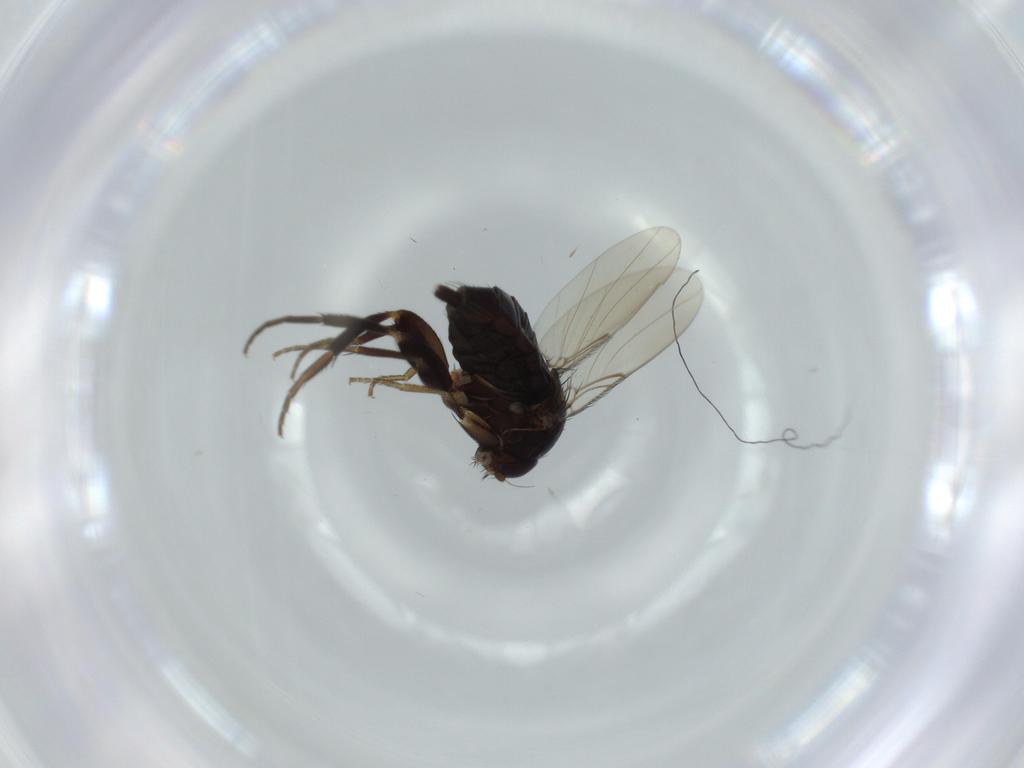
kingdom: Animalia
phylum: Arthropoda
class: Insecta
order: Diptera
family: Phoridae
